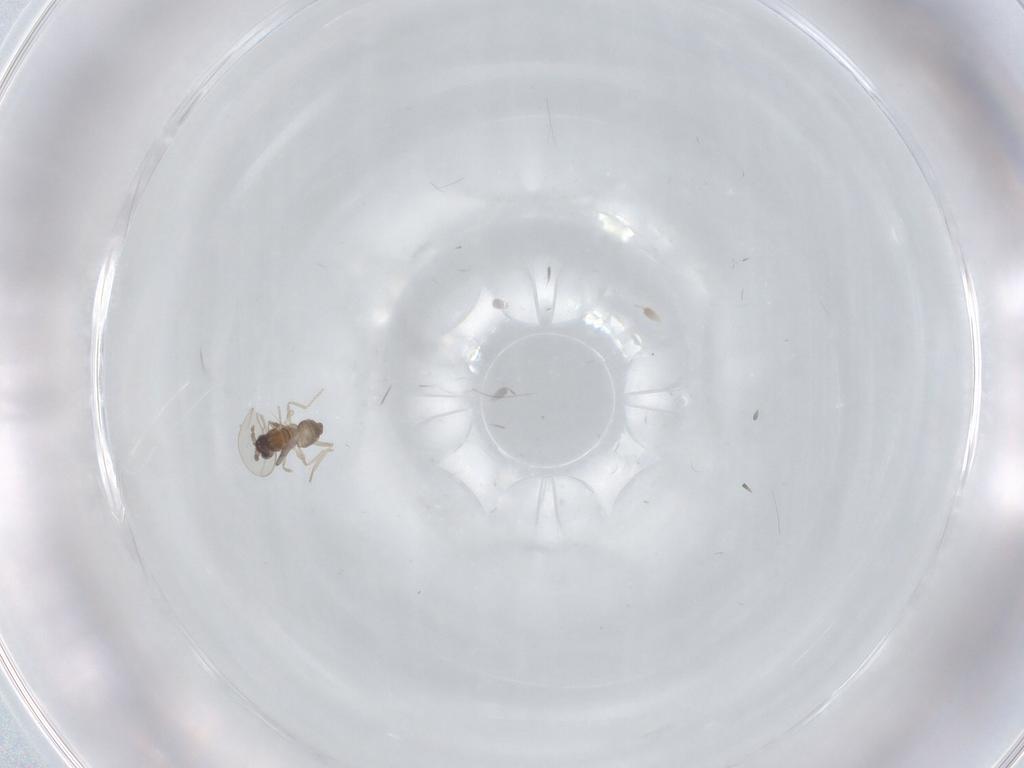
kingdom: Animalia
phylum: Arthropoda
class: Insecta
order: Diptera
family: Cecidomyiidae
